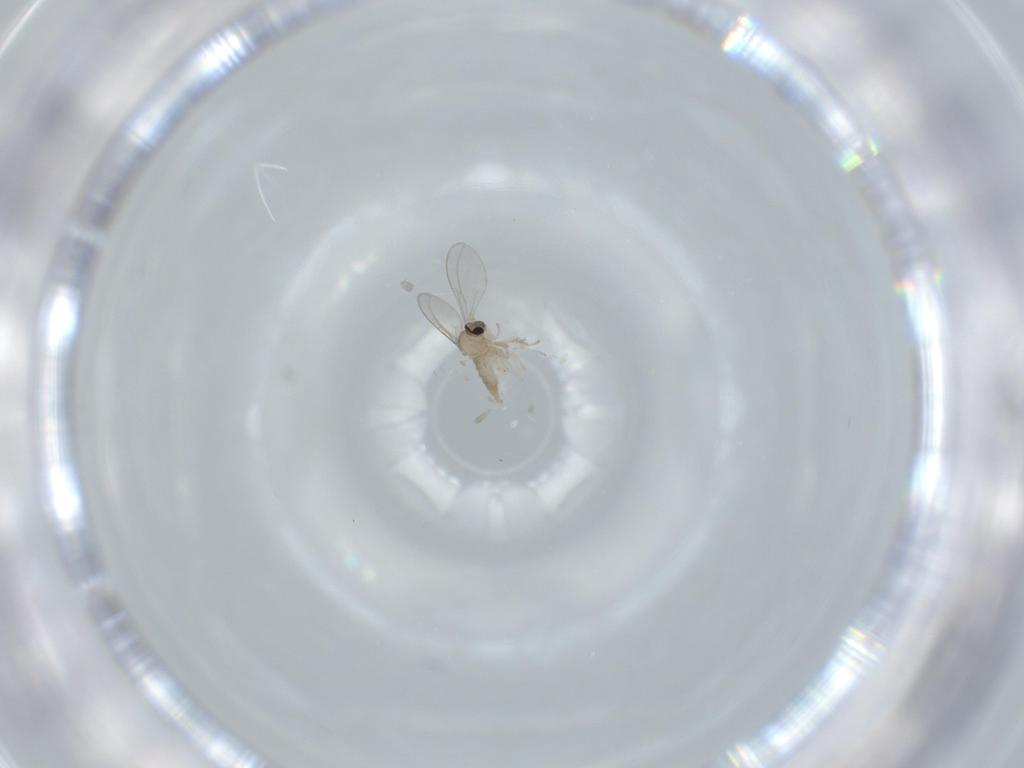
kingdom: Animalia
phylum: Arthropoda
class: Insecta
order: Diptera
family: Cecidomyiidae
